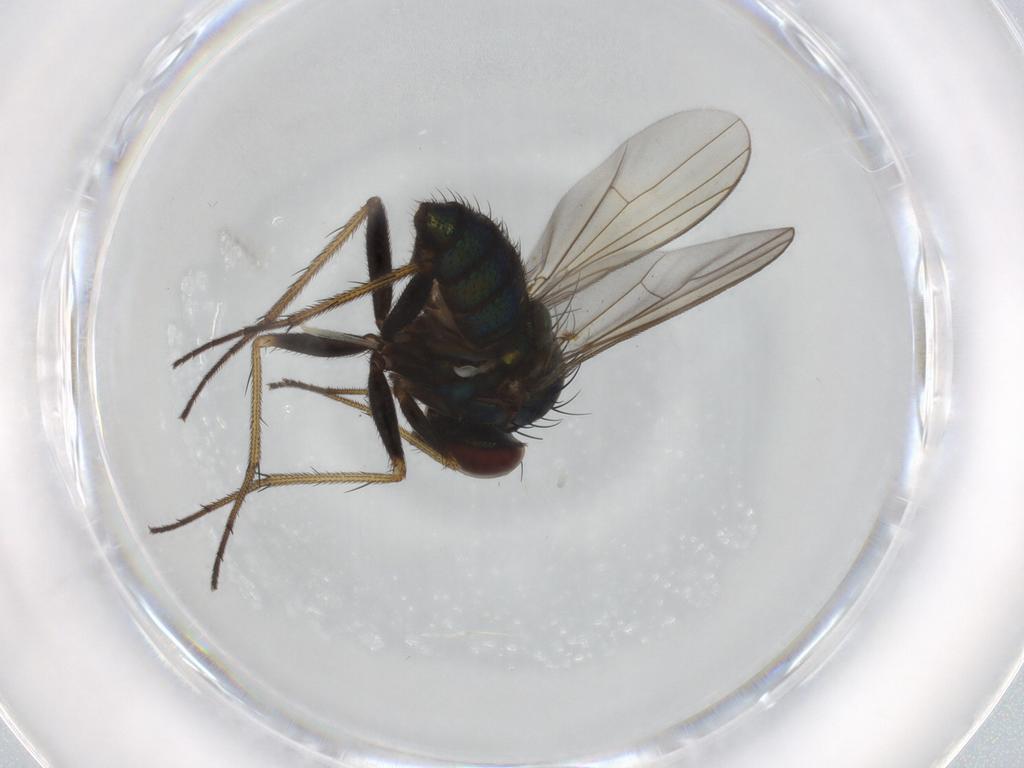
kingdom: Animalia
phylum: Arthropoda
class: Insecta
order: Diptera
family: Dolichopodidae
